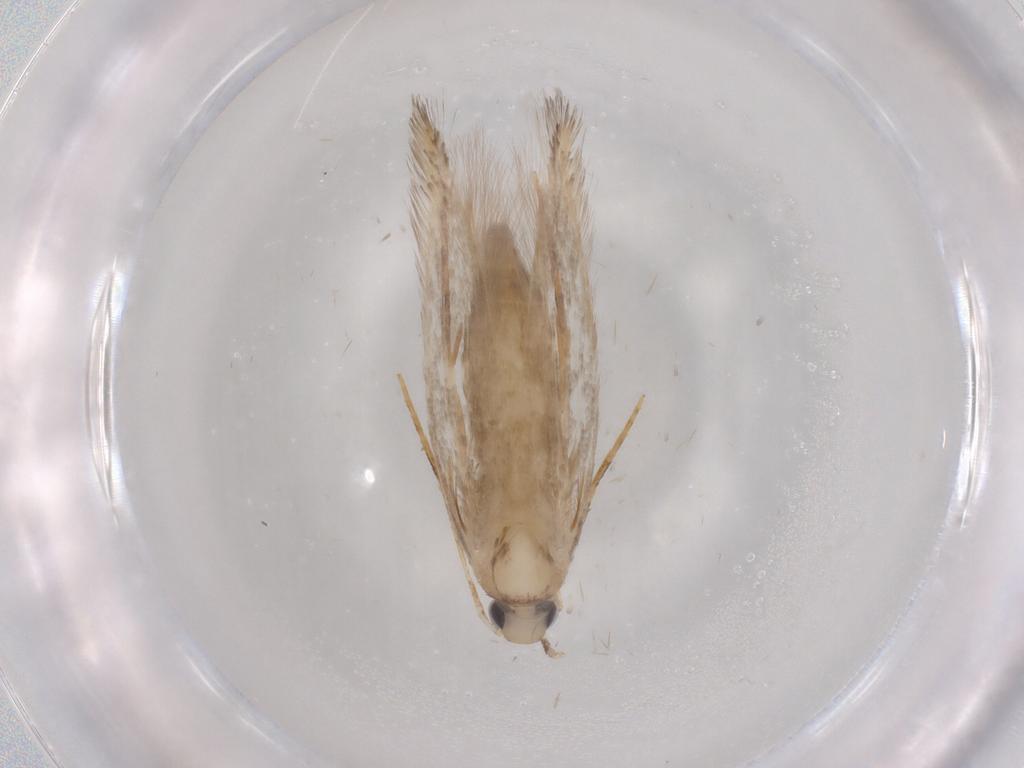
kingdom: Animalia
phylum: Arthropoda
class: Insecta
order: Lepidoptera
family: Coleophoridae
